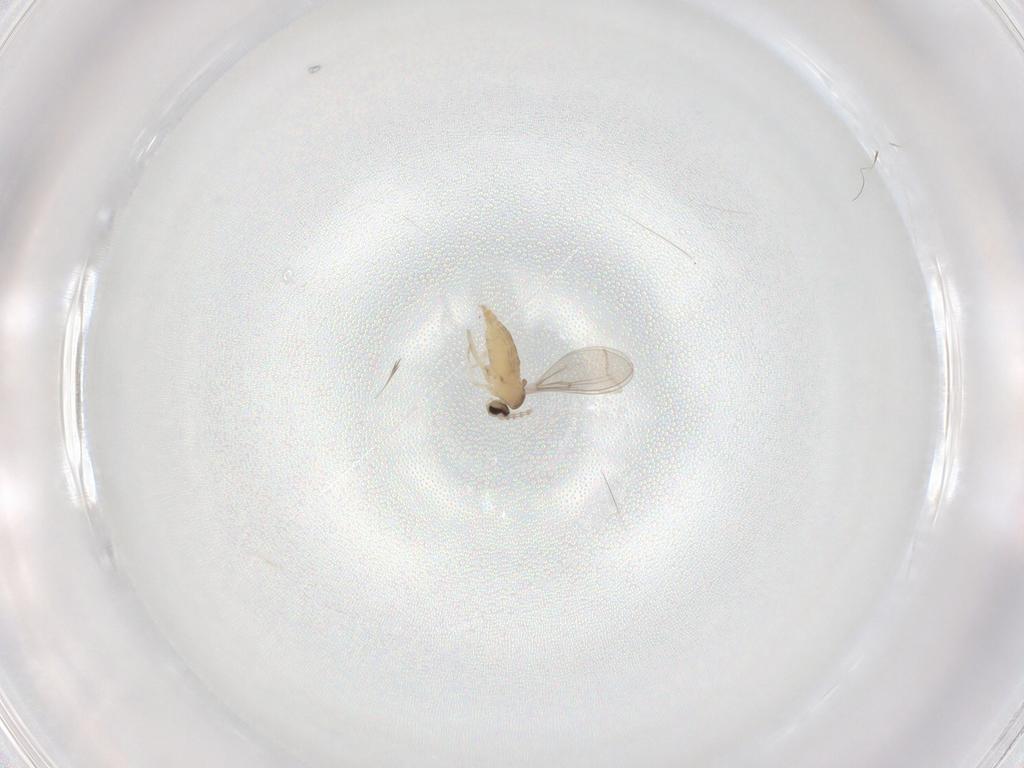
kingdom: Animalia
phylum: Arthropoda
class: Insecta
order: Diptera
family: Cecidomyiidae
